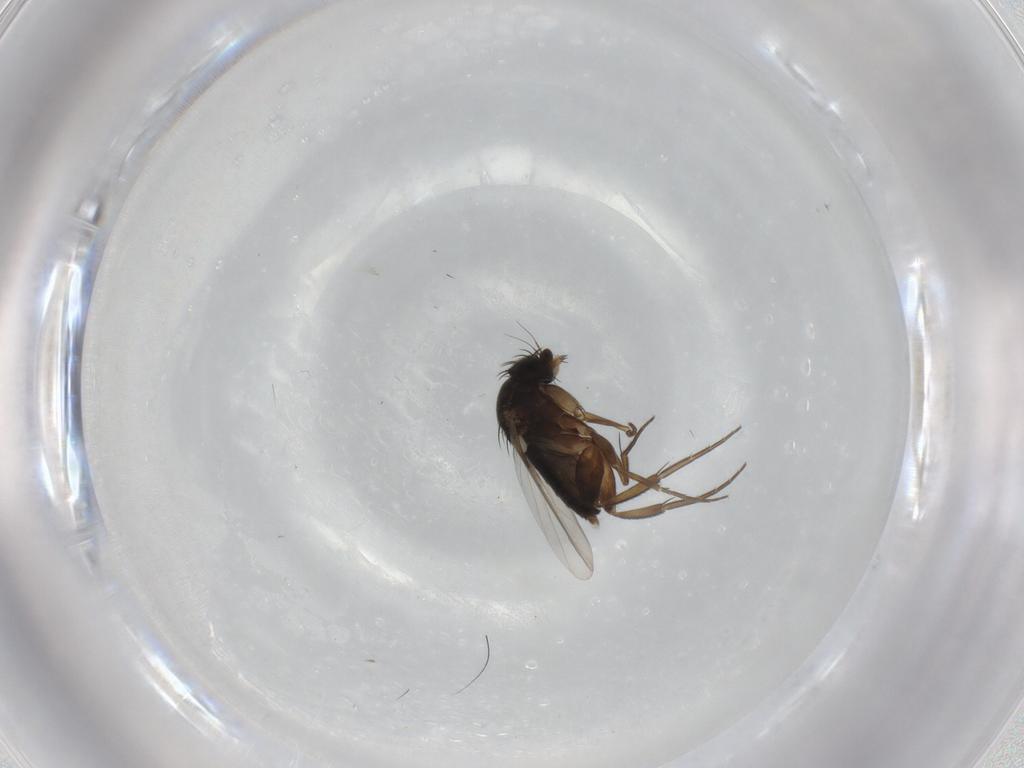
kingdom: Animalia
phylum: Arthropoda
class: Insecta
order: Diptera
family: Phoridae
